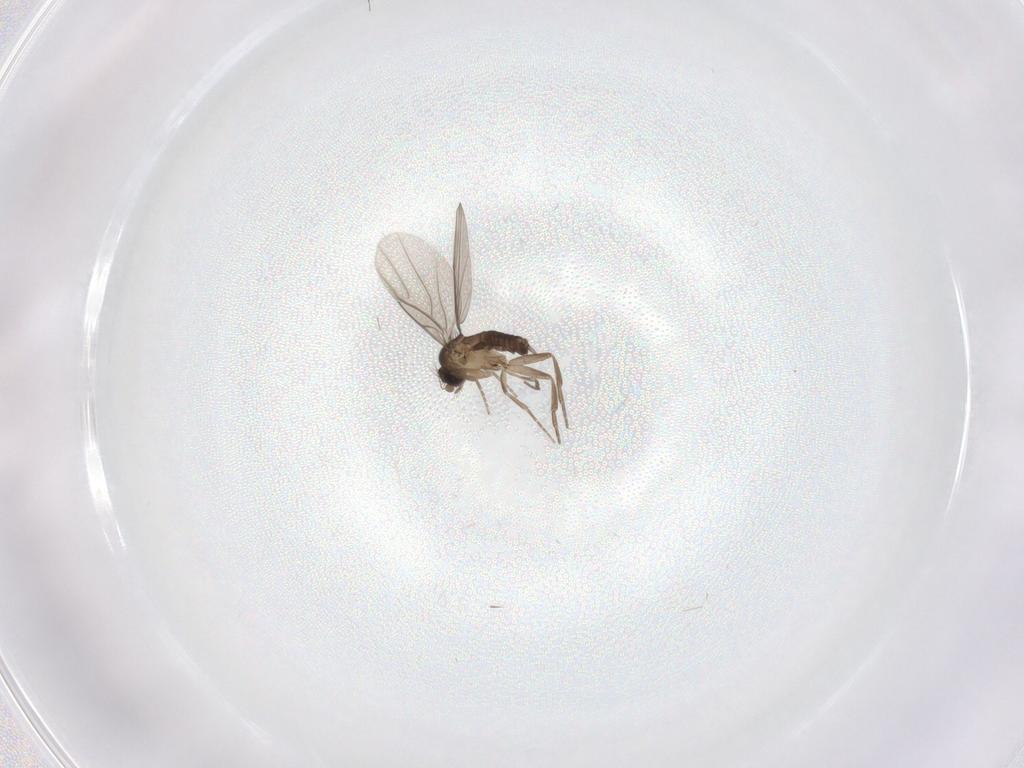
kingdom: Animalia
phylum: Arthropoda
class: Insecta
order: Diptera
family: Phoridae
